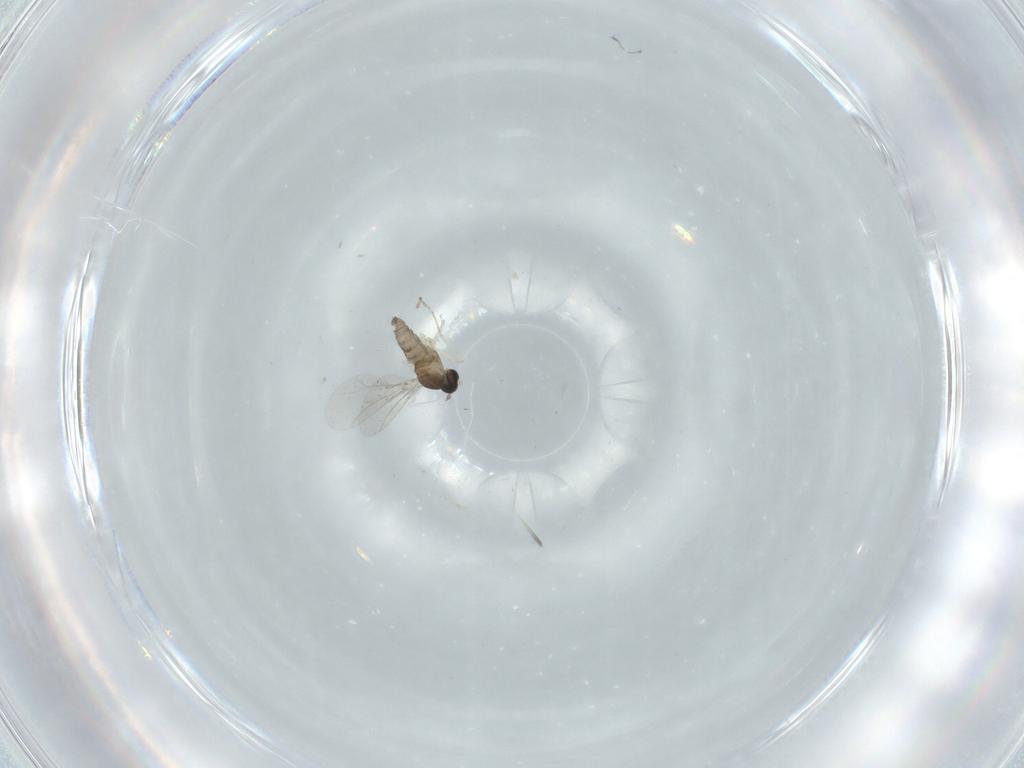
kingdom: Animalia
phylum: Arthropoda
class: Insecta
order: Diptera
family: Cecidomyiidae
